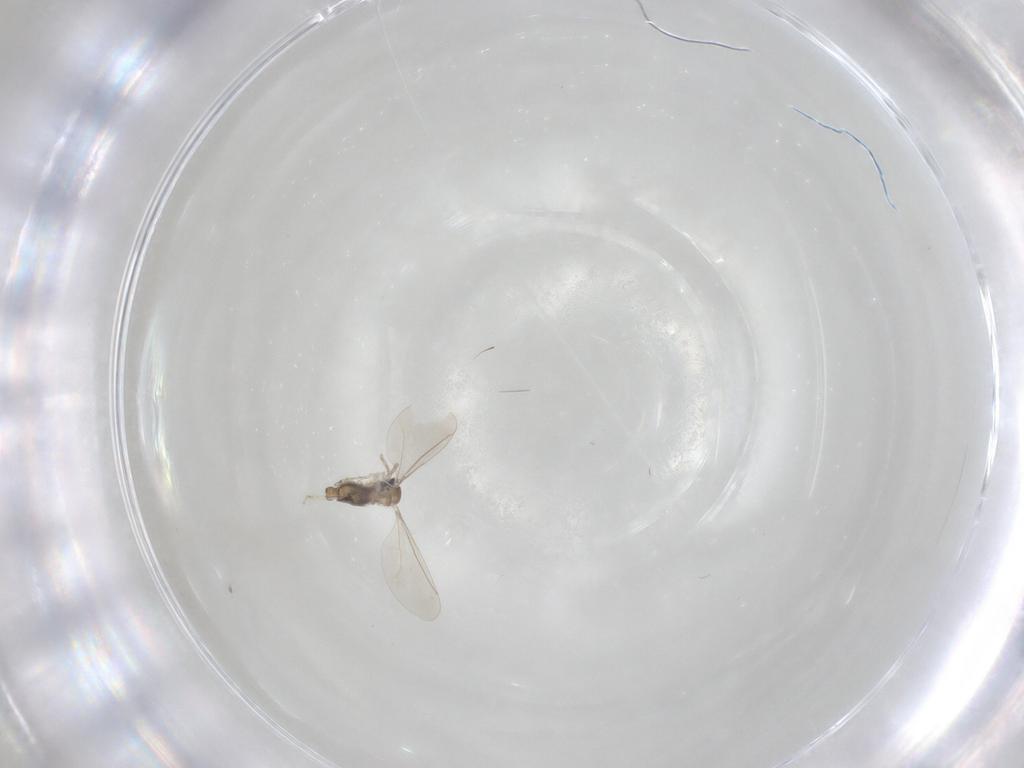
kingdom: Animalia
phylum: Arthropoda
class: Insecta
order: Diptera
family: Cecidomyiidae
